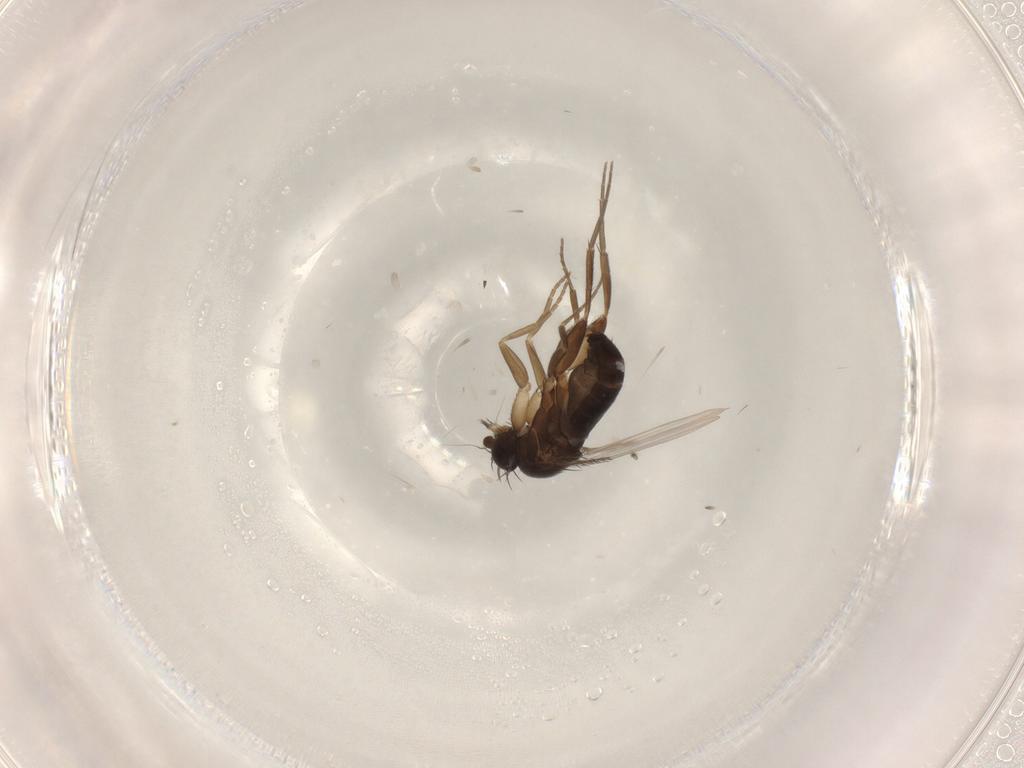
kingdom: Animalia
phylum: Arthropoda
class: Insecta
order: Diptera
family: Phoridae
